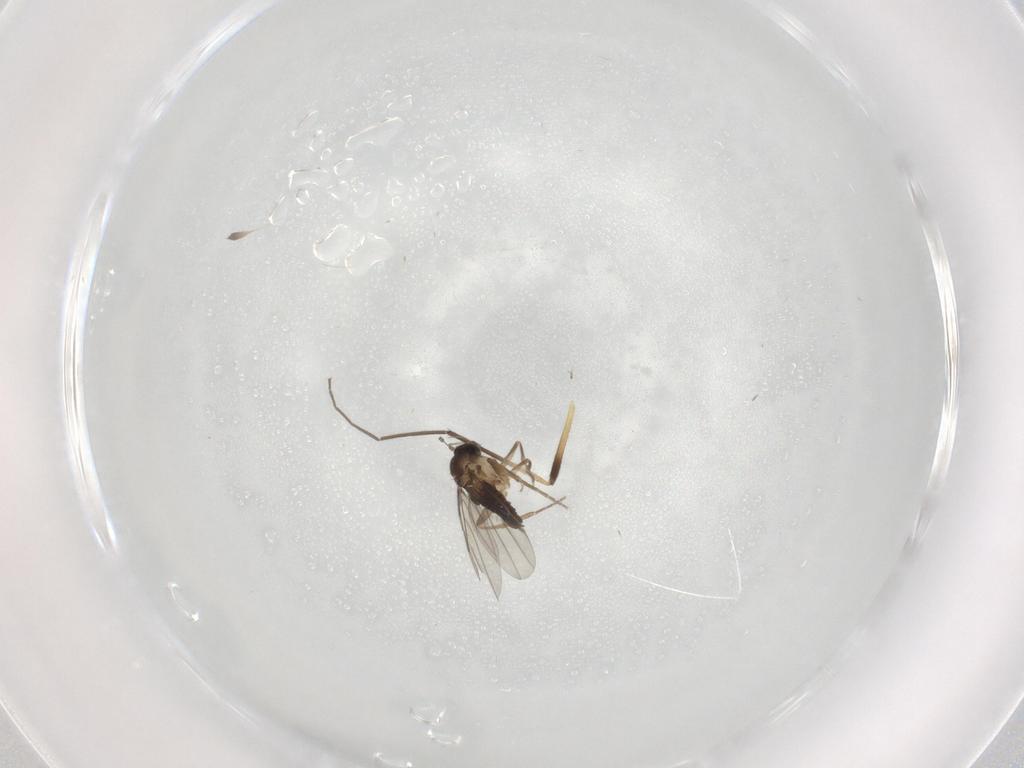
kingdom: Animalia
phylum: Arthropoda
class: Insecta
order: Diptera
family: Phoridae
